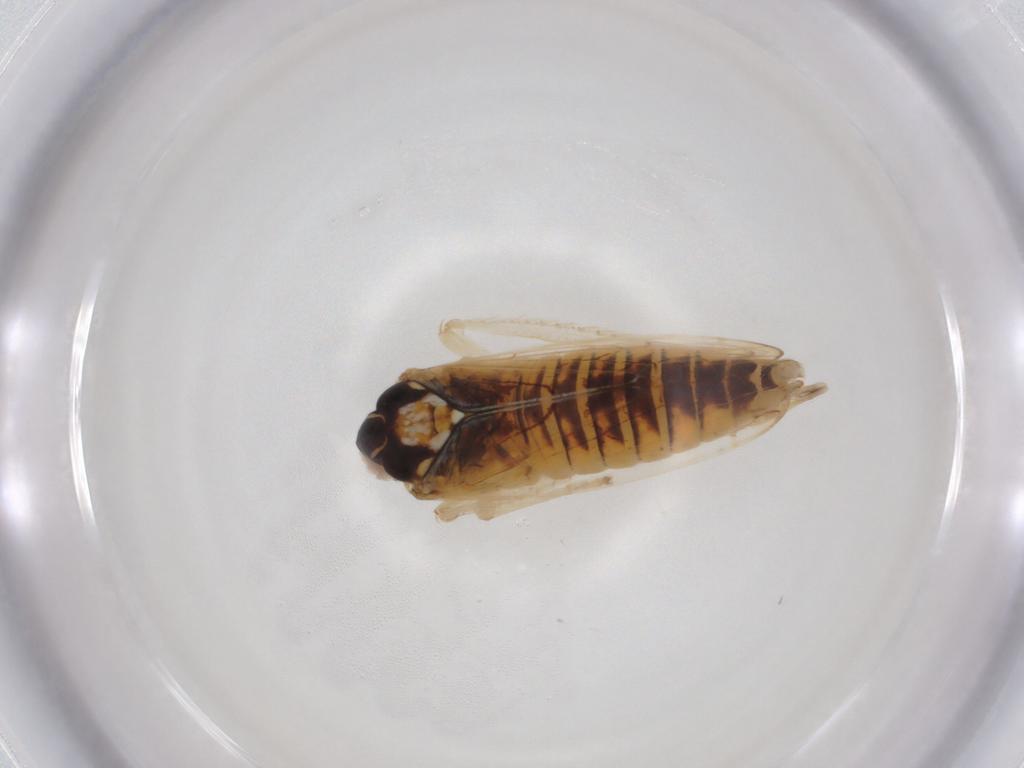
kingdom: Animalia
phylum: Arthropoda
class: Insecta
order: Hemiptera
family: Cicadellidae
